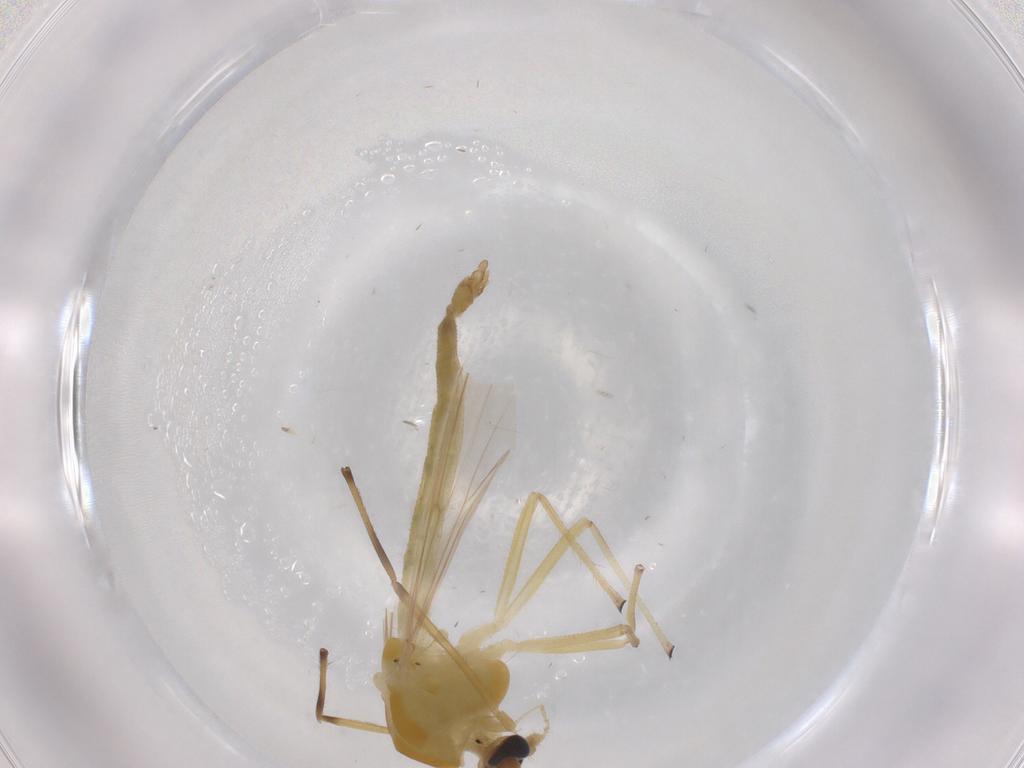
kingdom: Animalia
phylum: Arthropoda
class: Insecta
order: Diptera
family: Chironomidae
